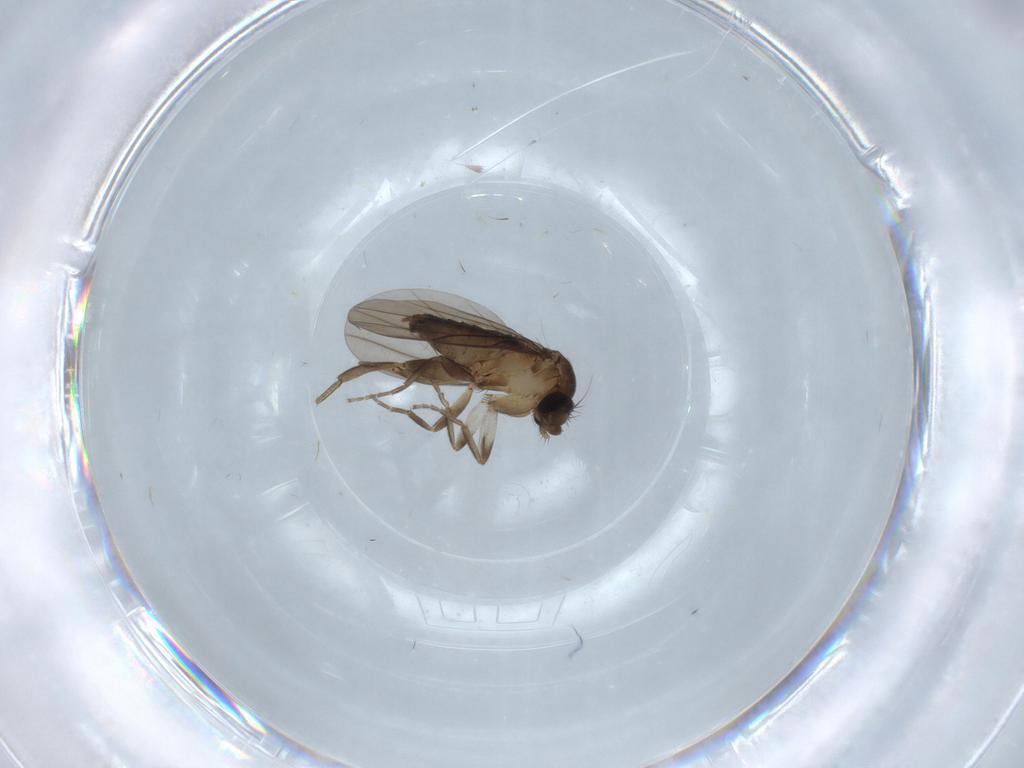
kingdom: Animalia
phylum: Arthropoda
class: Insecta
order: Diptera
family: Cecidomyiidae
